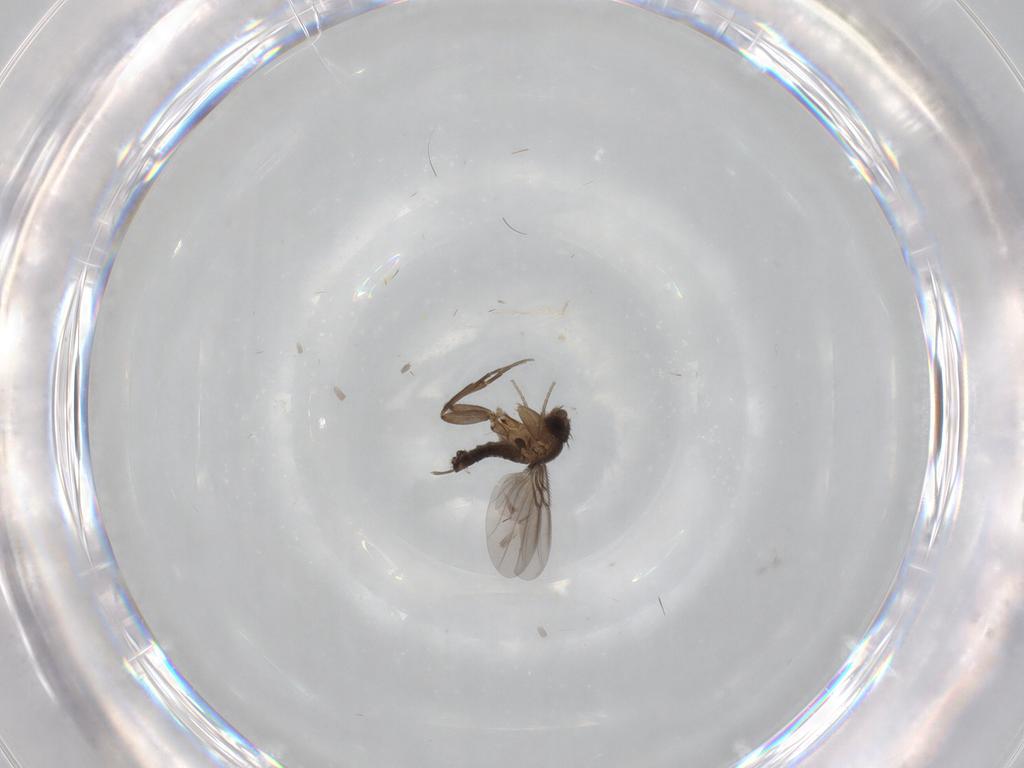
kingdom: Animalia
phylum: Arthropoda
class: Insecta
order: Diptera
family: Phoridae
